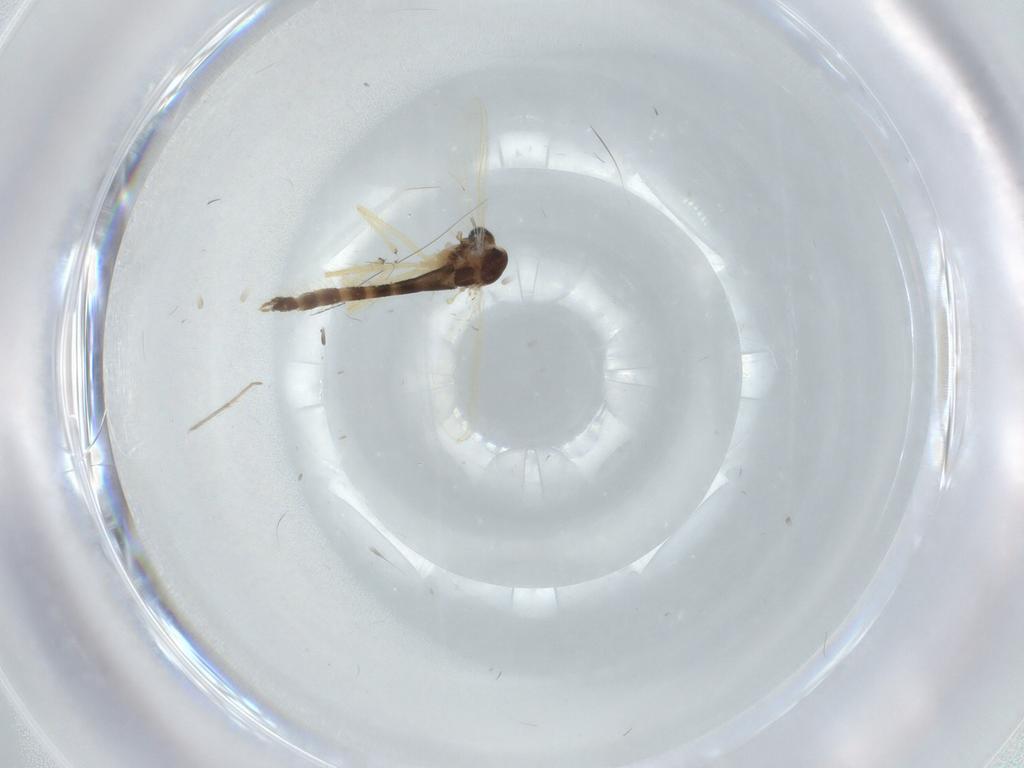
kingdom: Animalia
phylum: Arthropoda
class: Insecta
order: Diptera
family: Chironomidae
